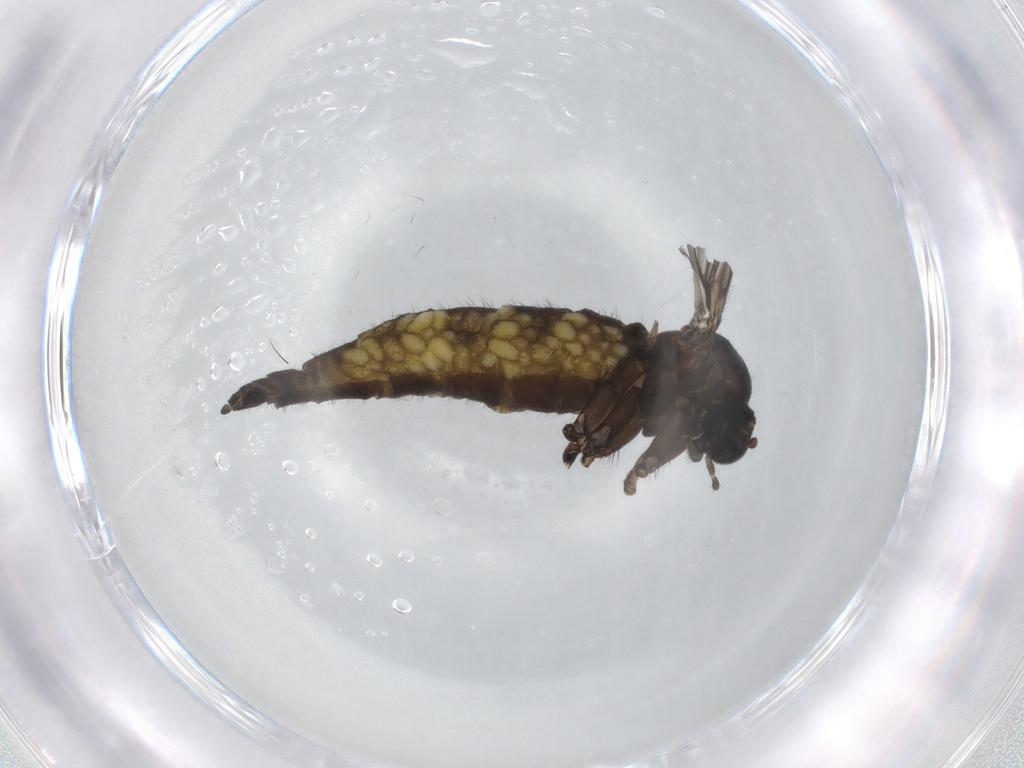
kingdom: Animalia
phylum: Arthropoda
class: Insecta
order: Diptera
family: Sciaridae
